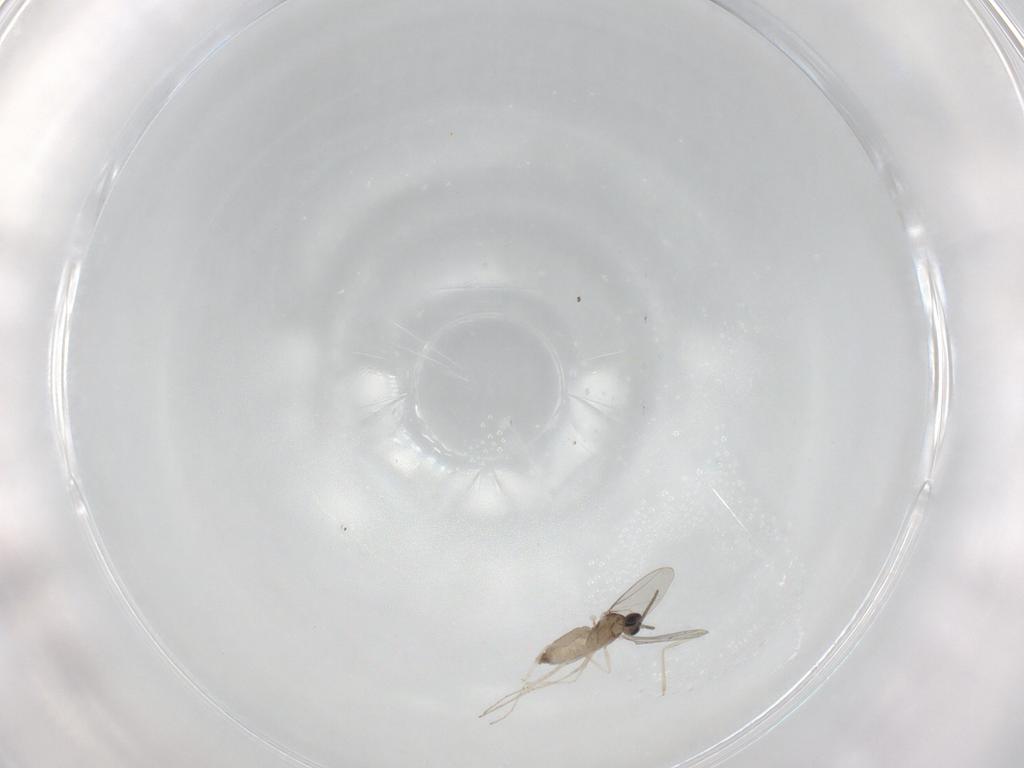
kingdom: Animalia
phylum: Arthropoda
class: Insecta
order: Diptera
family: Cecidomyiidae
